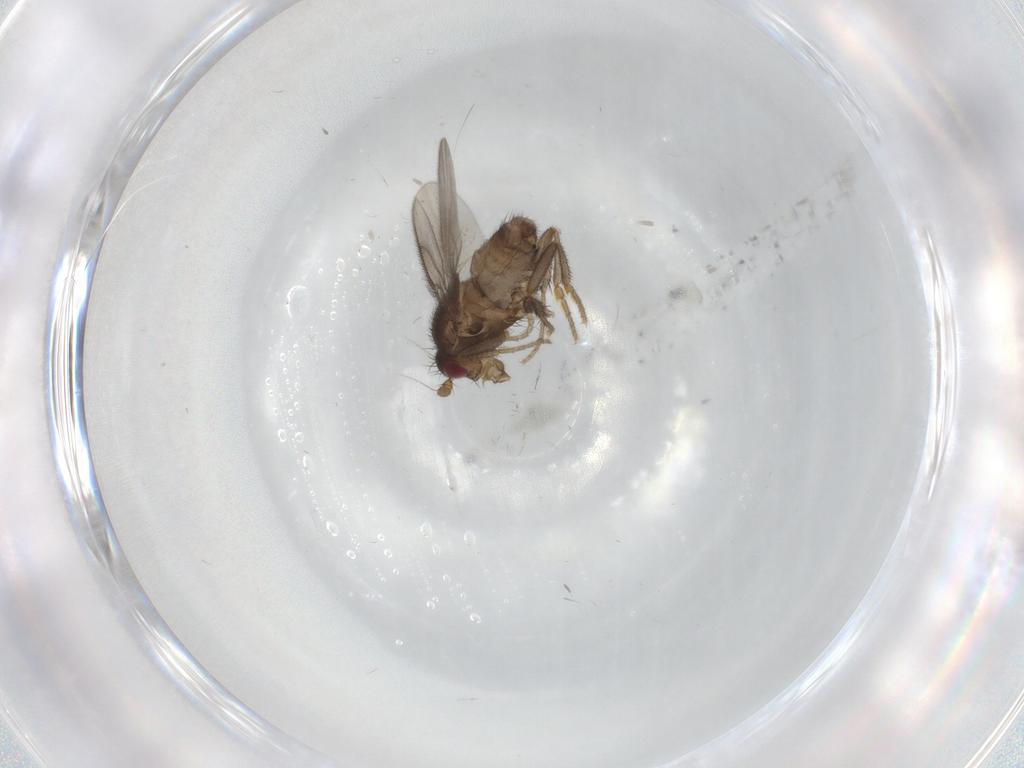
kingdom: Animalia
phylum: Arthropoda
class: Insecta
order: Diptera
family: Sphaeroceridae
